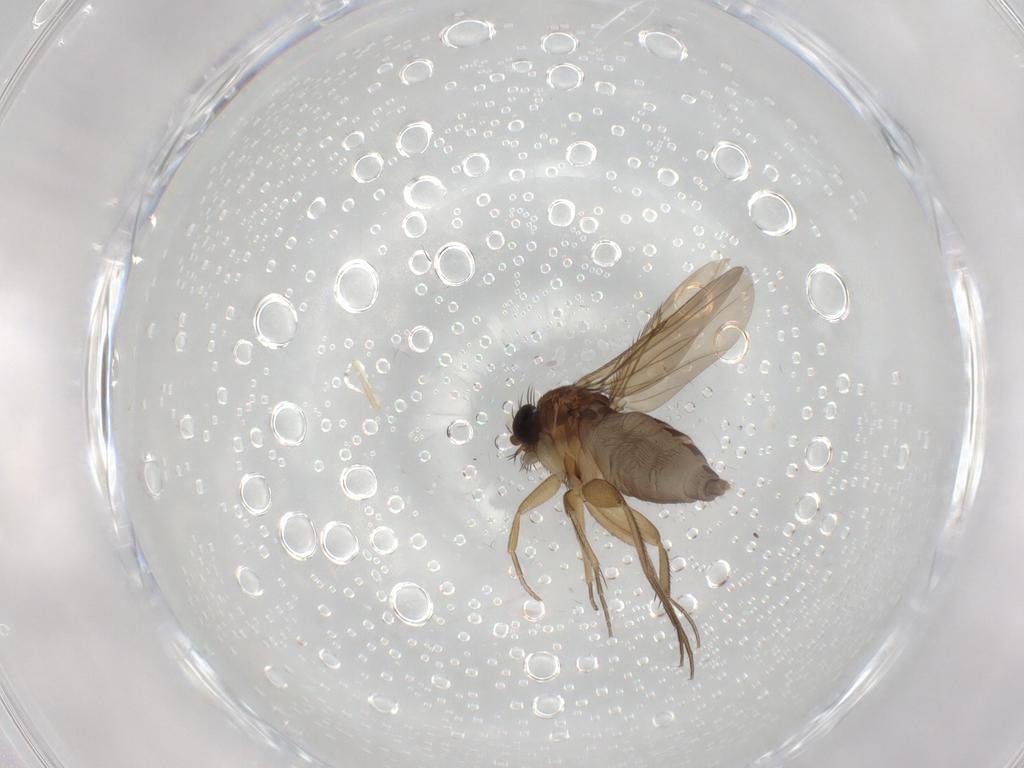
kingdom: Animalia
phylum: Arthropoda
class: Insecta
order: Diptera
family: Phoridae
